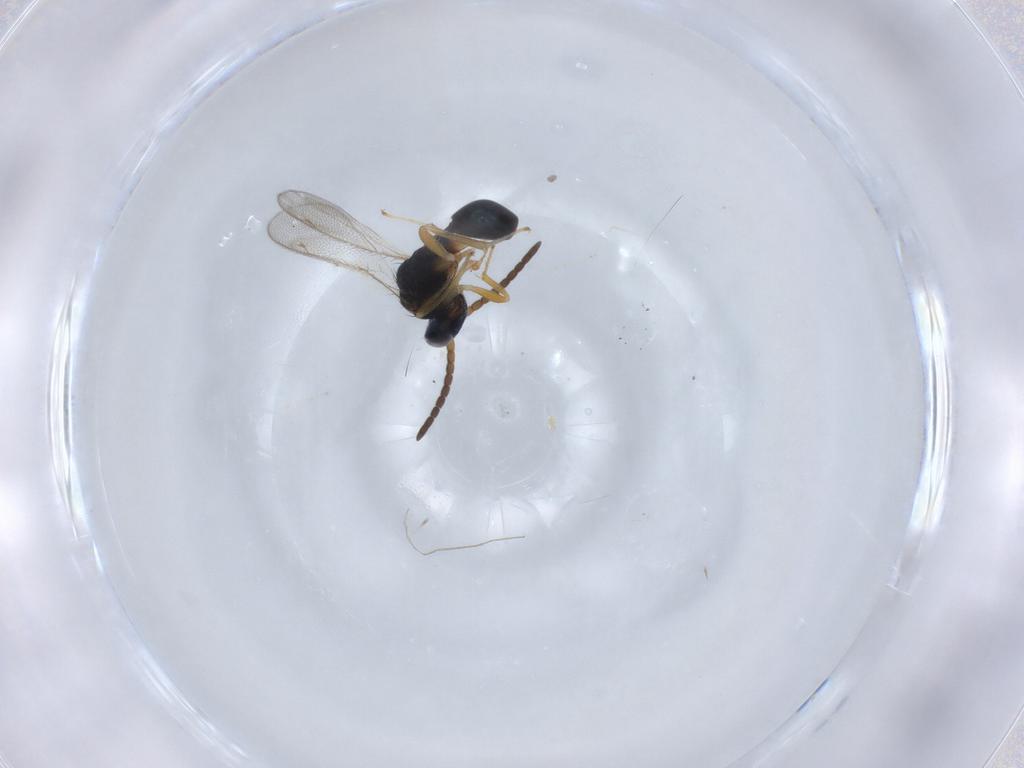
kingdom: Animalia
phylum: Arthropoda
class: Insecta
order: Hymenoptera
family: Diparidae
